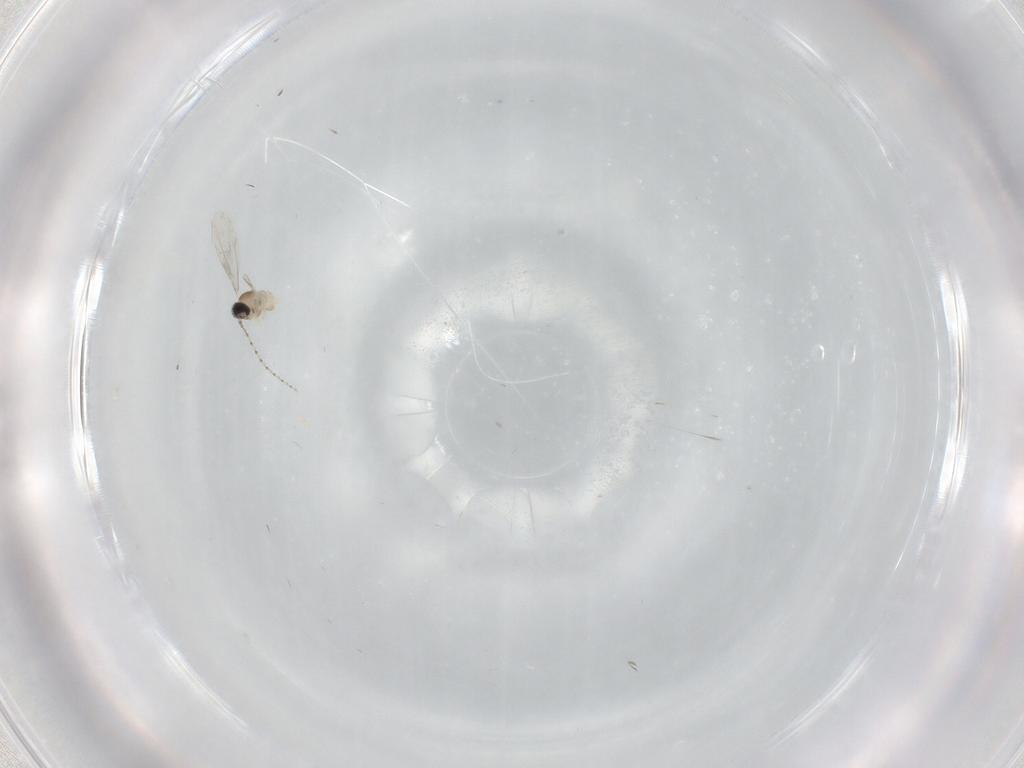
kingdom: Animalia
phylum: Arthropoda
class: Insecta
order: Diptera
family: Cecidomyiidae
